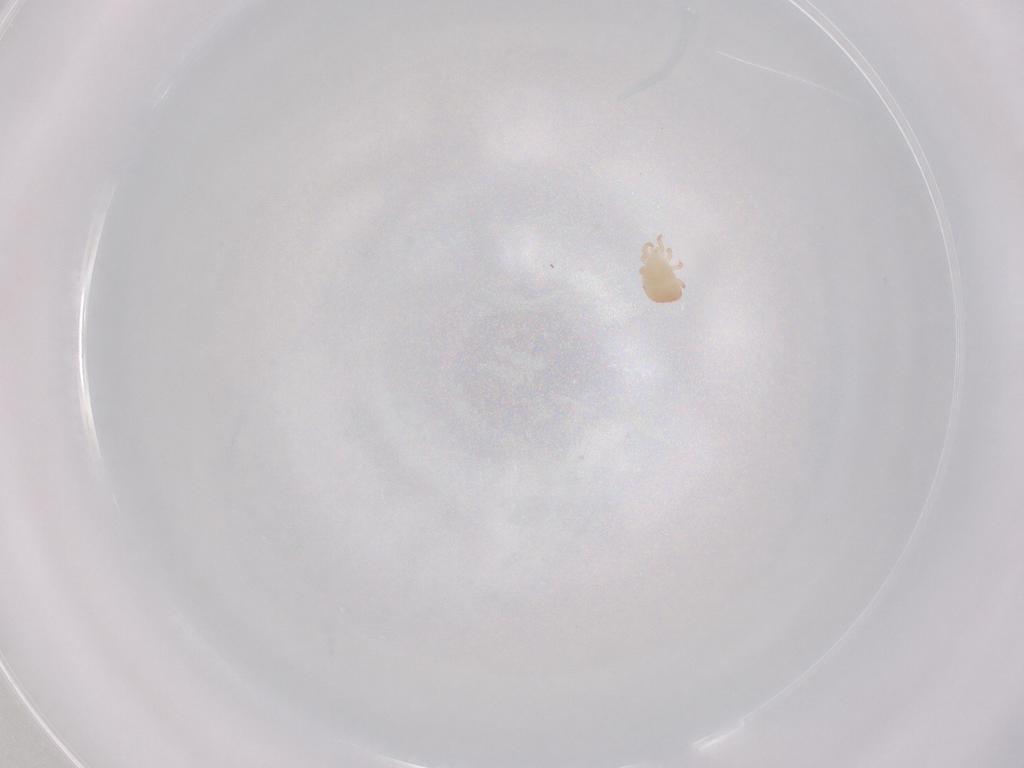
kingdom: Animalia
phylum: Arthropoda
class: Arachnida
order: Mesostigmata
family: Zerconidae
